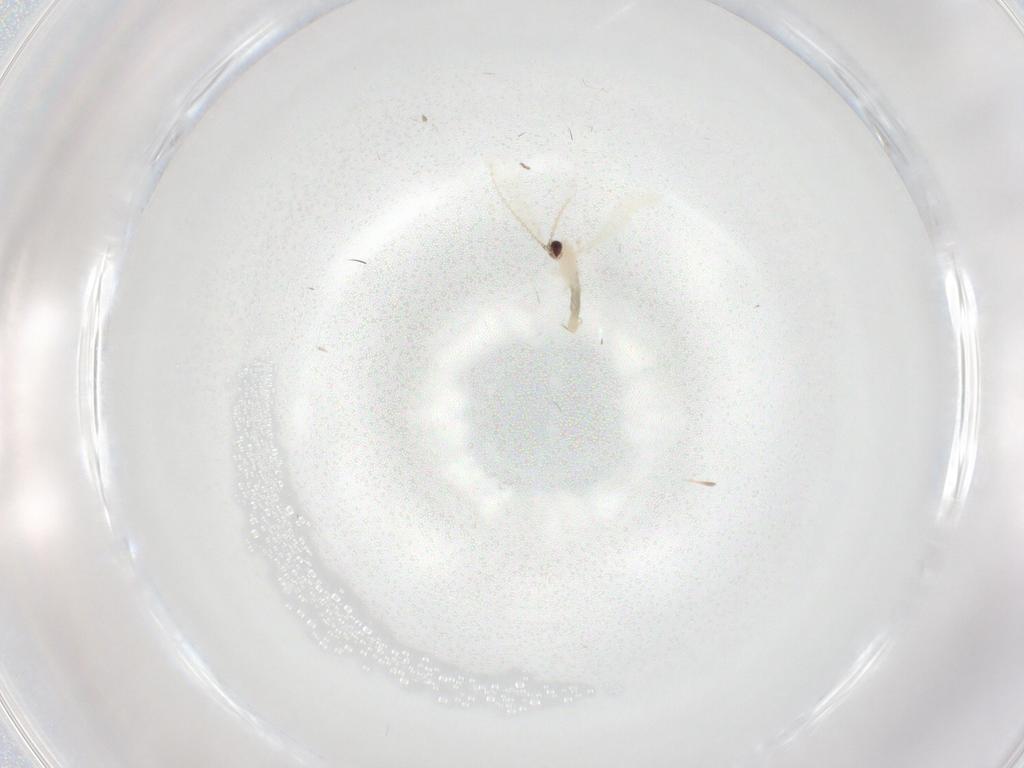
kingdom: Animalia
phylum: Arthropoda
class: Insecta
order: Diptera
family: Cecidomyiidae
